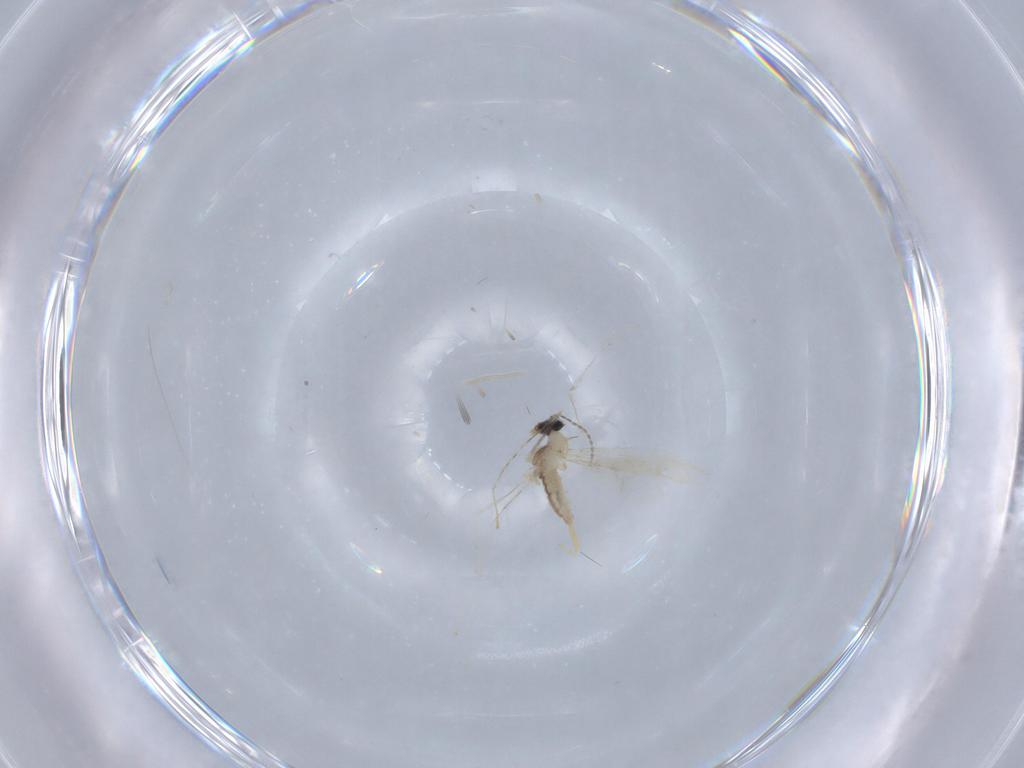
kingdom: Animalia
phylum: Arthropoda
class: Insecta
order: Diptera
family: Cecidomyiidae
